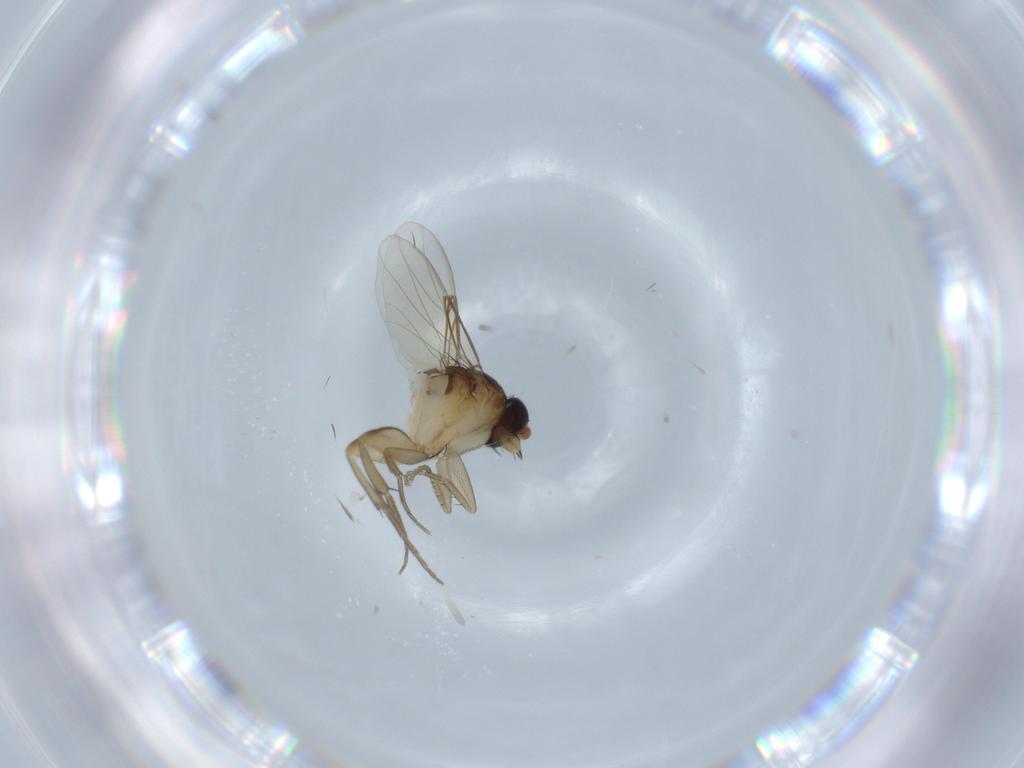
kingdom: Animalia
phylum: Arthropoda
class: Insecta
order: Diptera
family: Phoridae
